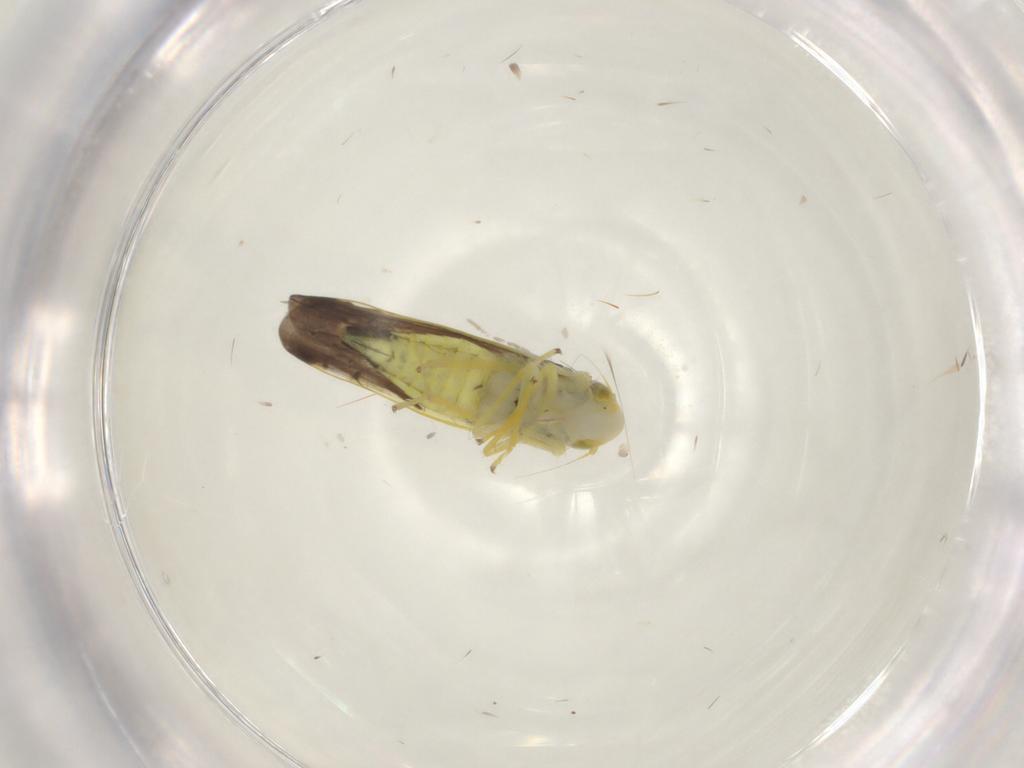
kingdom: Animalia
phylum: Arthropoda
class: Insecta
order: Hemiptera
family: Cicadellidae
